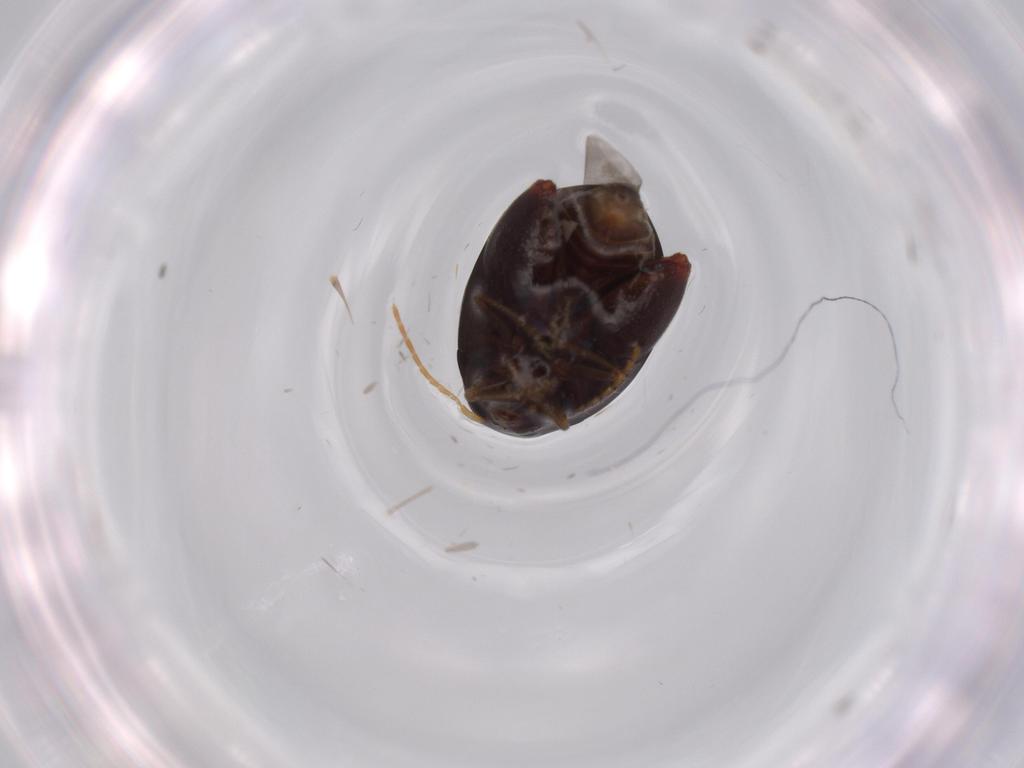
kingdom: Animalia
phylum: Arthropoda
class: Insecta
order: Coleoptera
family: Chrysomelidae
